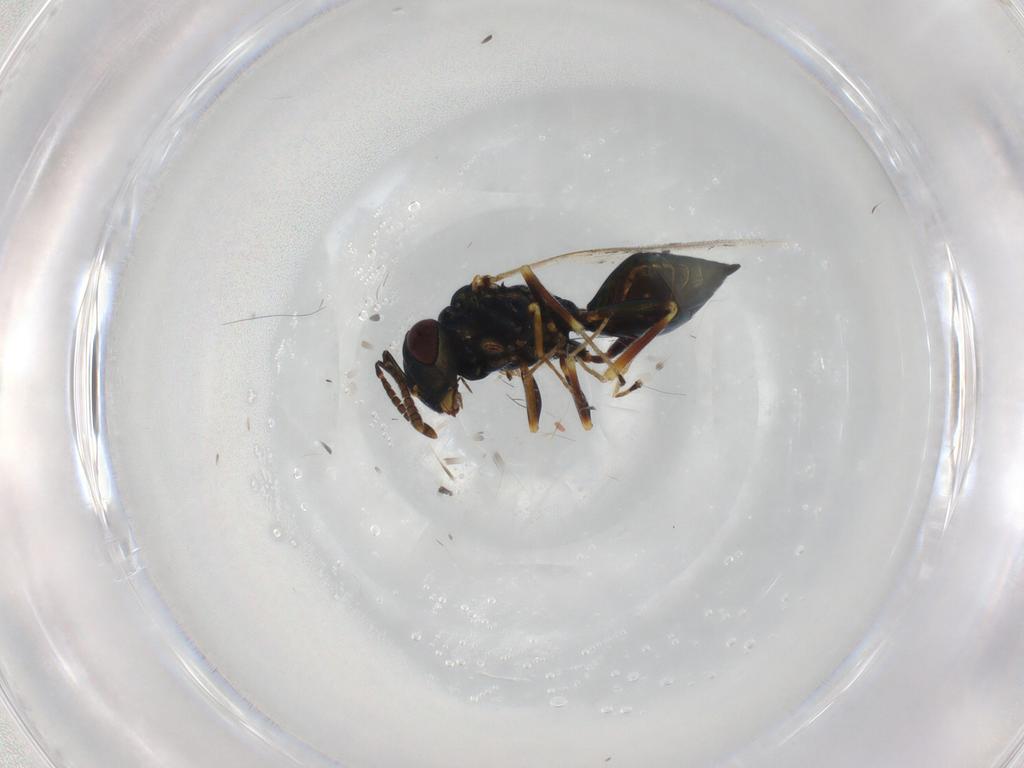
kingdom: Animalia
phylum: Arthropoda
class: Insecta
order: Hymenoptera
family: Pteromalidae
